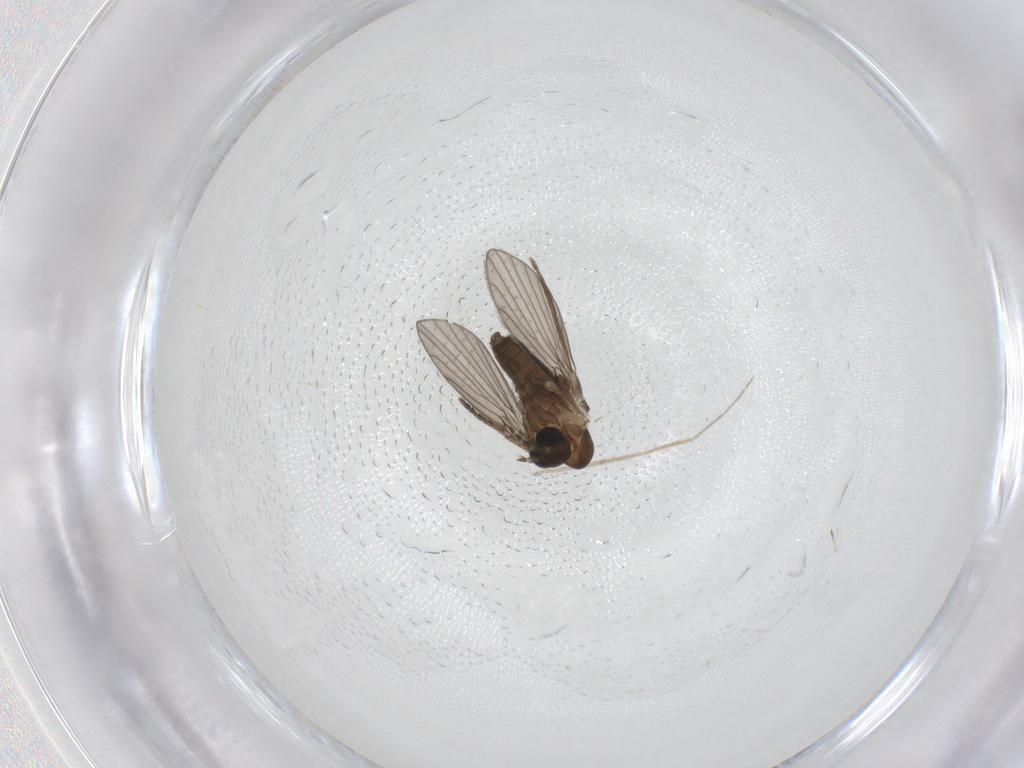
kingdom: Animalia
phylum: Arthropoda
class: Insecta
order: Diptera
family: Chironomidae
